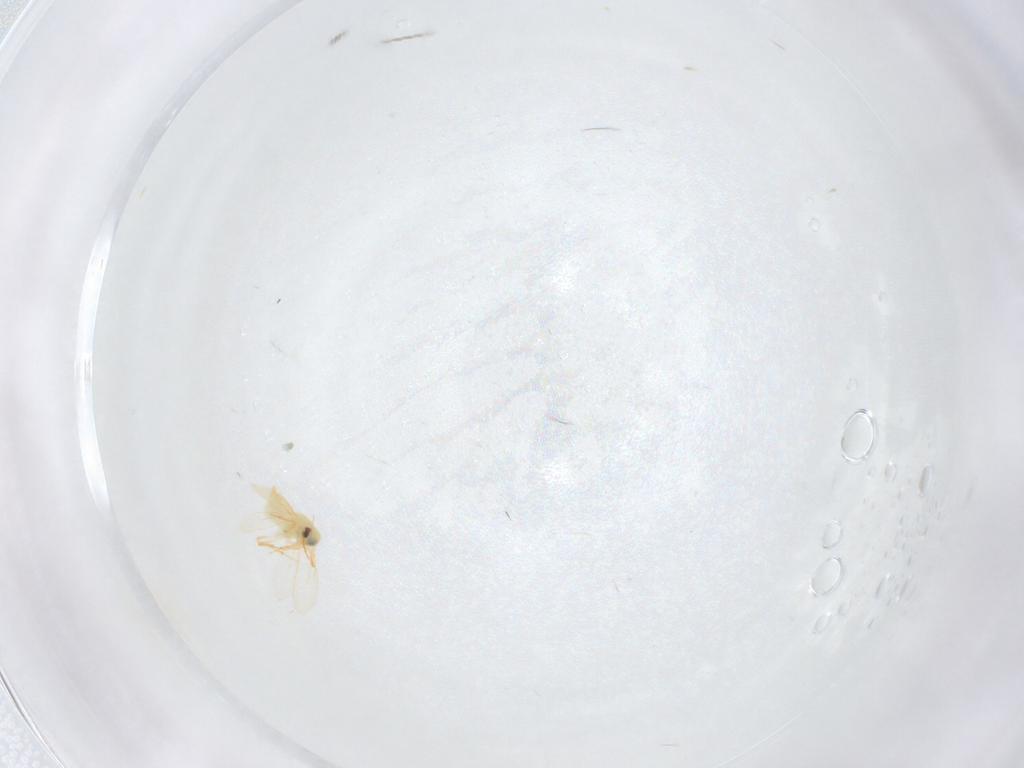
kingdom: Animalia
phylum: Arthropoda
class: Insecta
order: Hemiptera
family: Aleyrodidae
